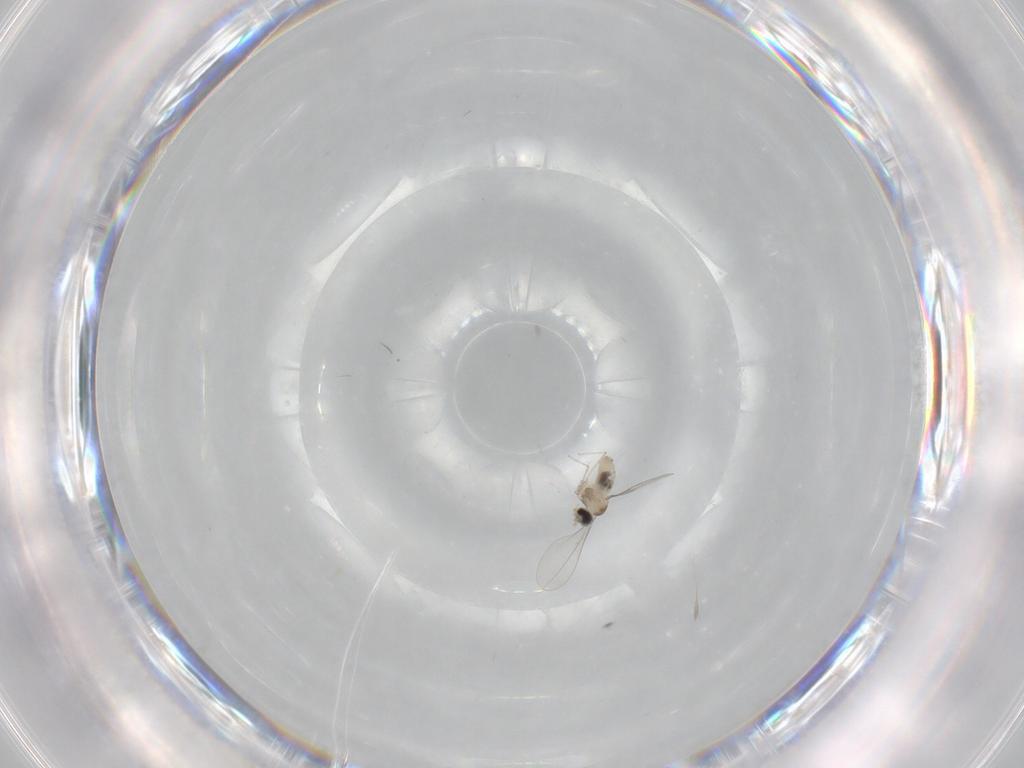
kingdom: Animalia
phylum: Arthropoda
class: Insecta
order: Diptera
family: Cecidomyiidae
